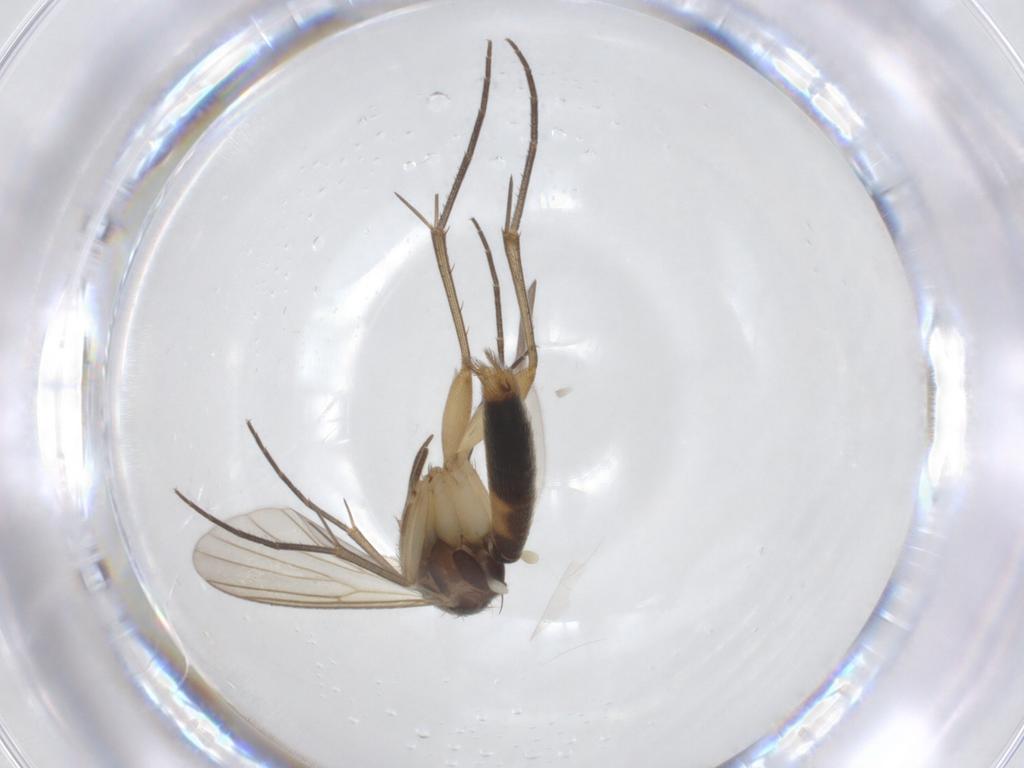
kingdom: Animalia
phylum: Arthropoda
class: Insecta
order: Diptera
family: Mycetophilidae
